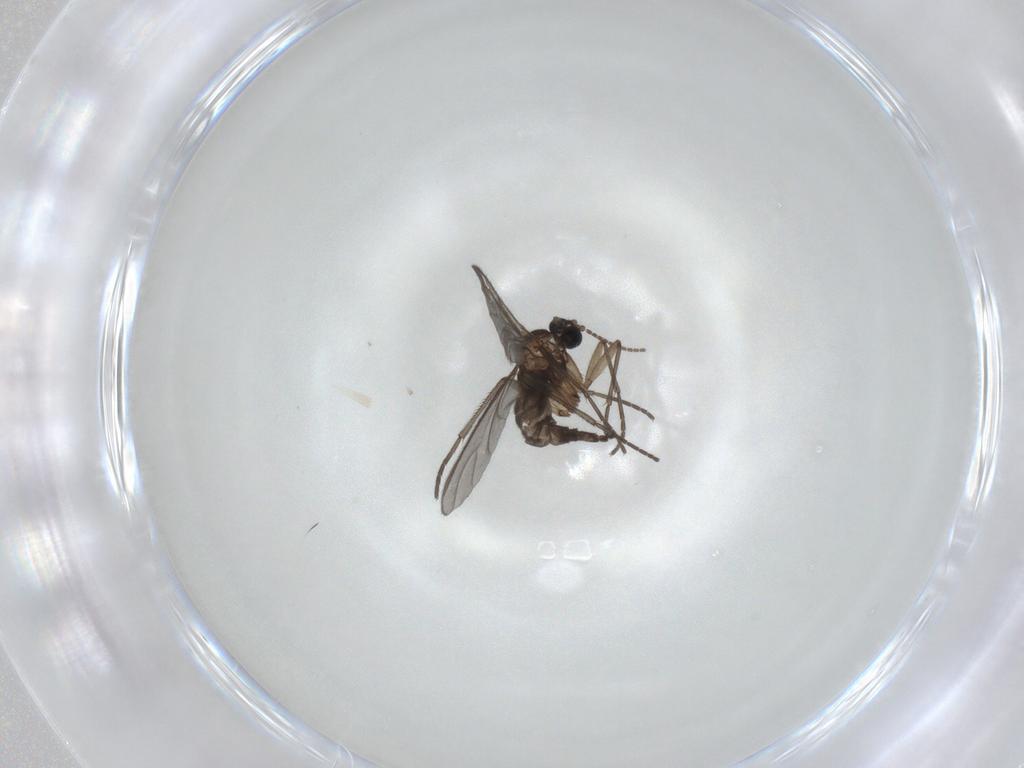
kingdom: Animalia
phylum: Arthropoda
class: Insecta
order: Diptera
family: Sciaridae
